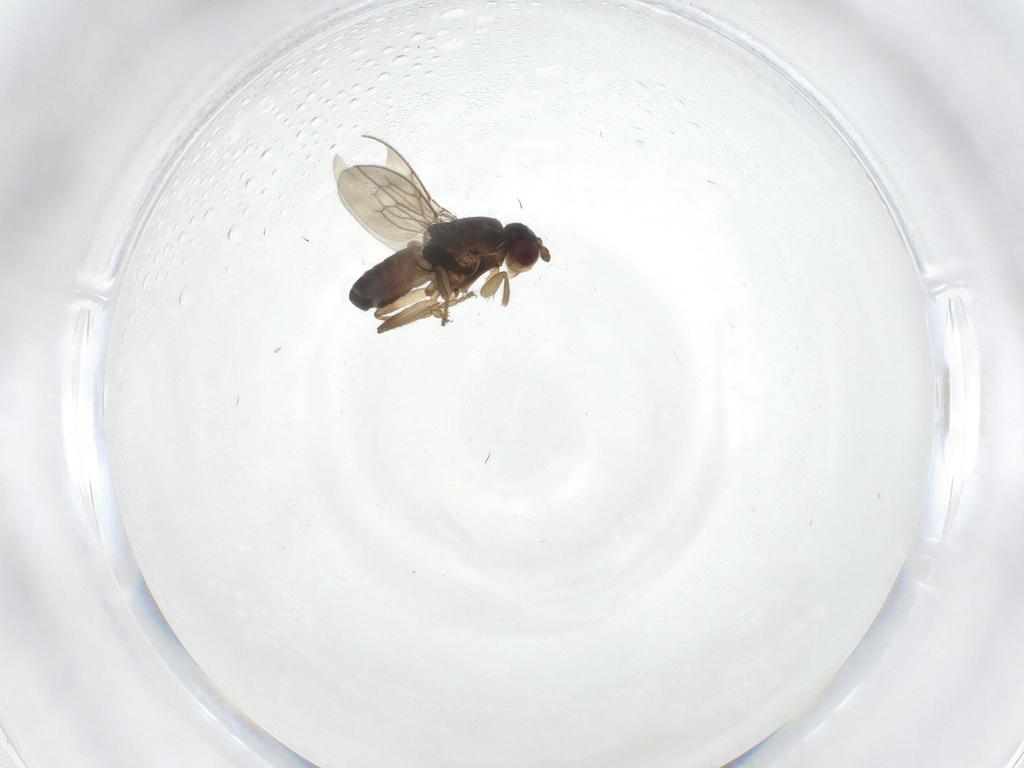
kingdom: Animalia
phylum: Arthropoda
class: Insecta
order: Diptera
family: Sphaeroceridae
